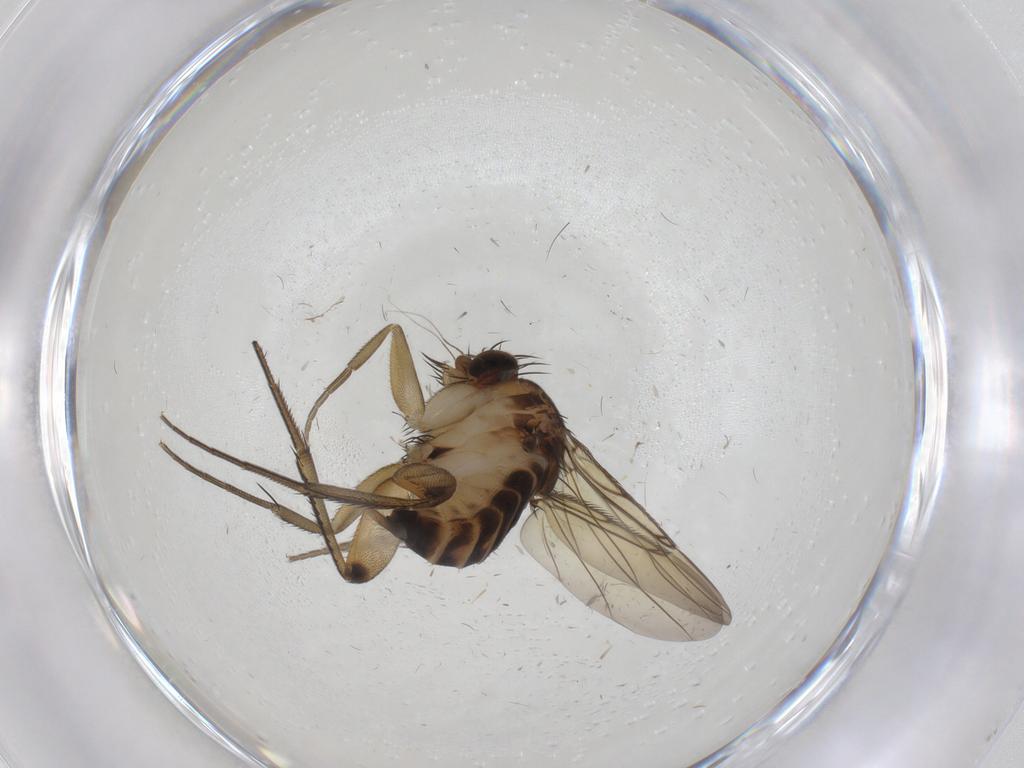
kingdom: Animalia
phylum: Arthropoda
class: Insecta
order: Diptera
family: Phoridae
